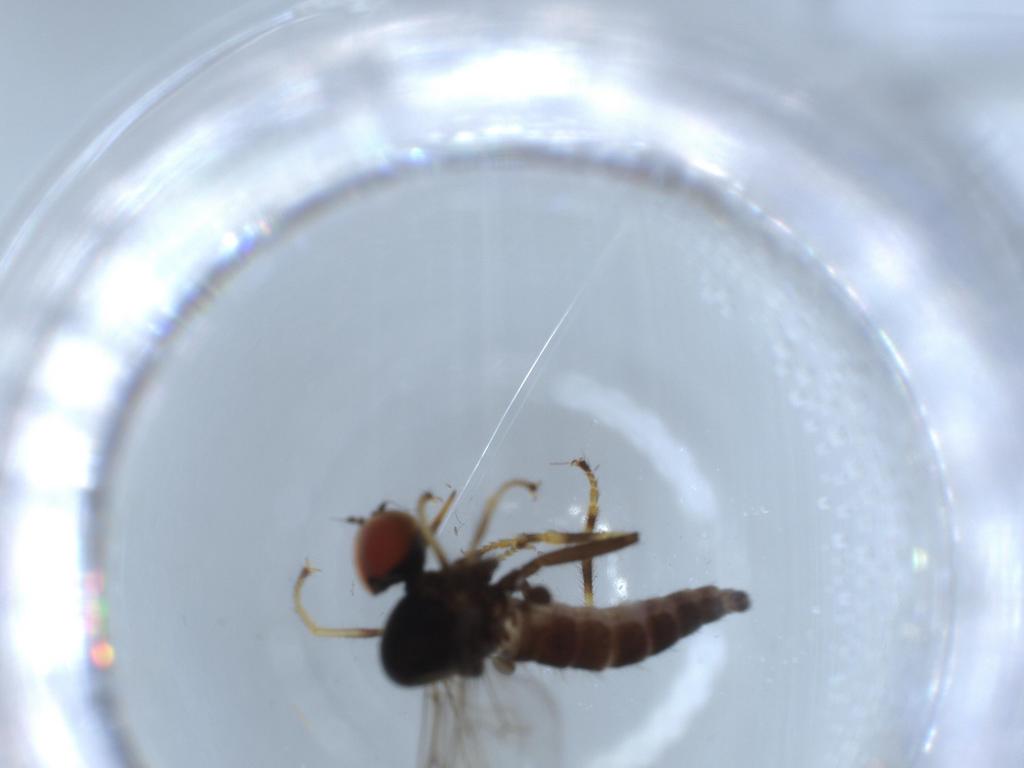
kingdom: Animalia
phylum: Arthropoda
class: Insecta
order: Diptera
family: Hybotidae
